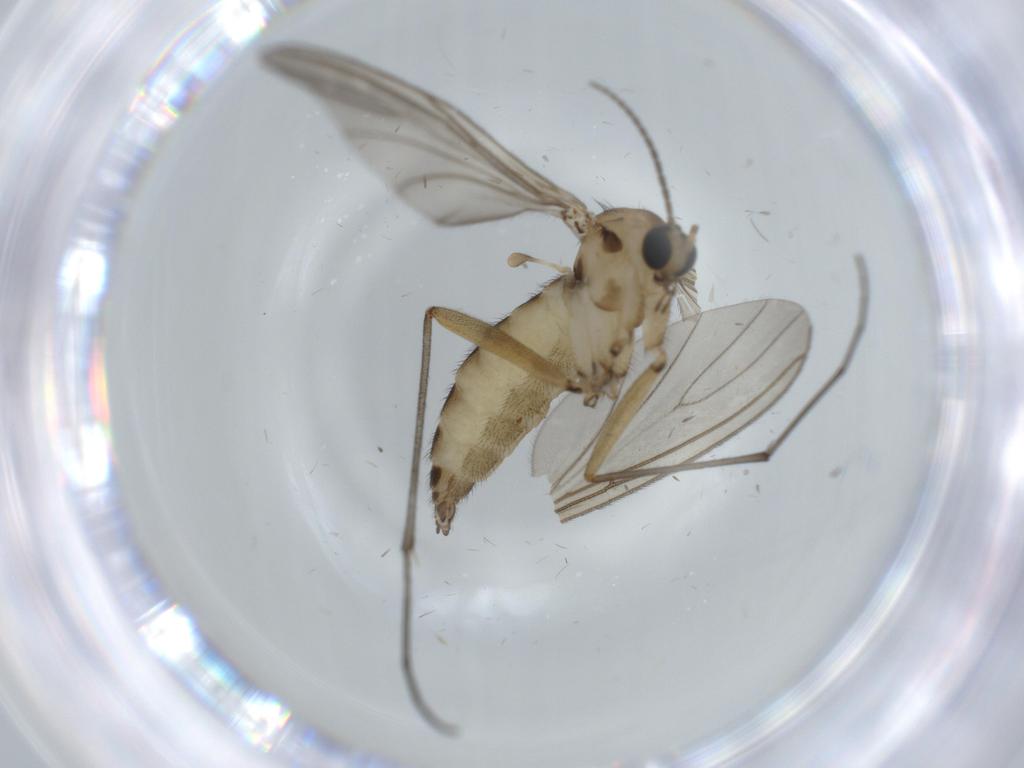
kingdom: Animalia
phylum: Arthropoda
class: Insecta
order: Diptera
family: Sciaridae
